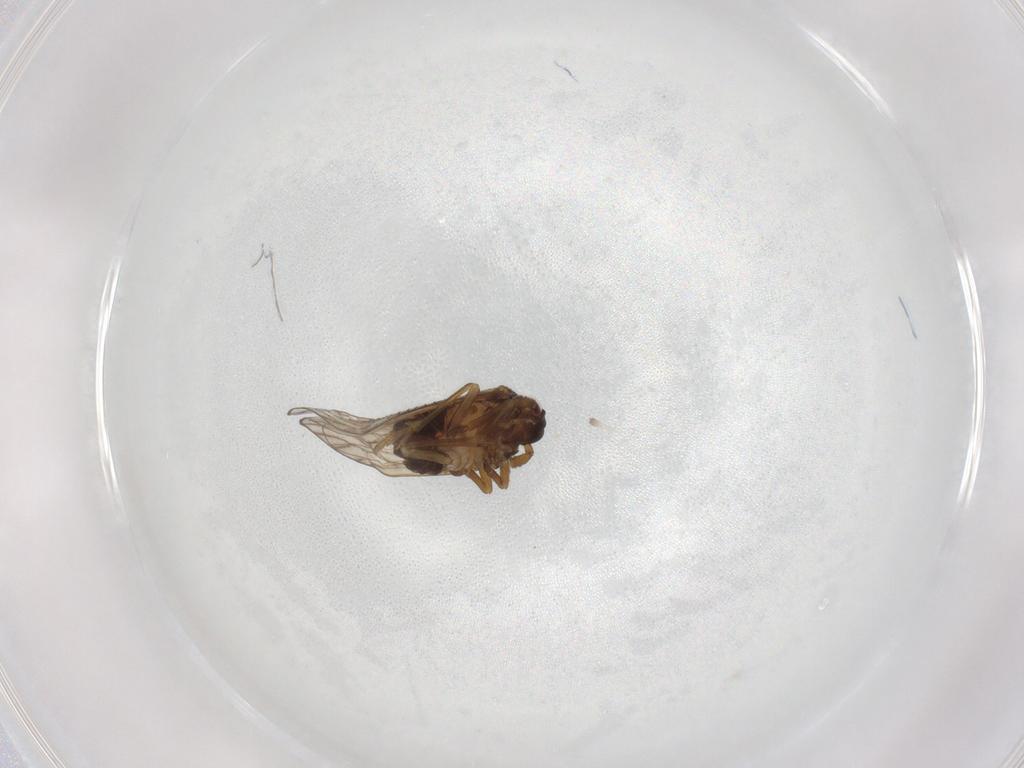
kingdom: Animalia
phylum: Arthropoda
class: Insecta
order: Hemiptera
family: Delphacidae
